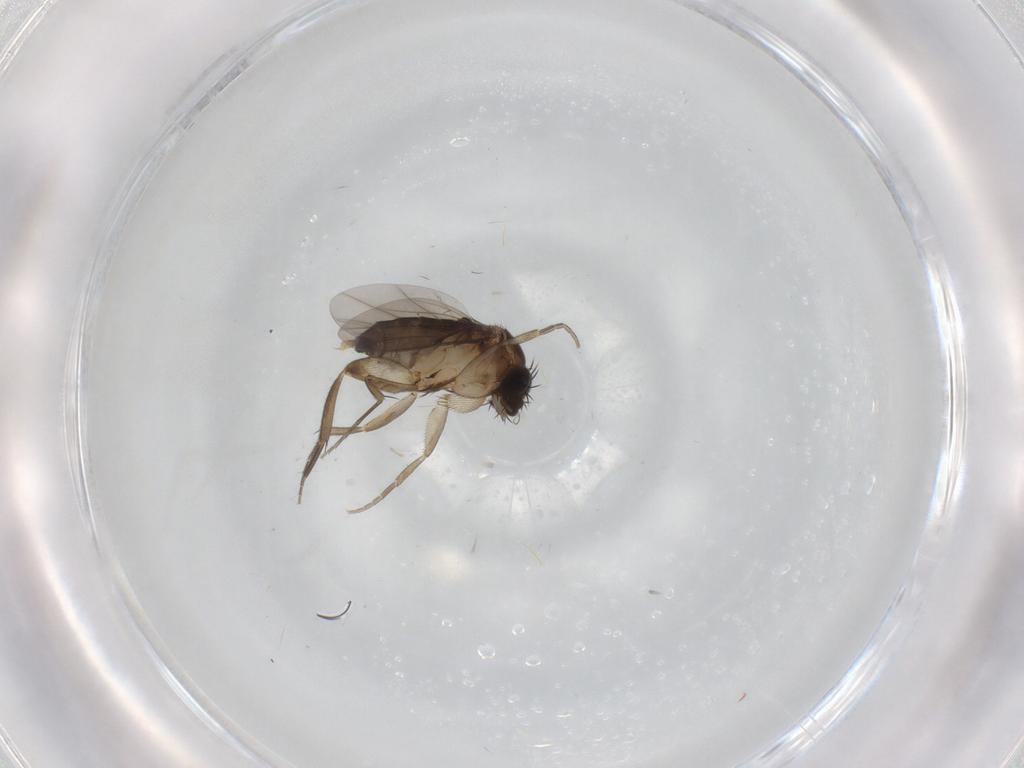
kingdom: Animalia
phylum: Arthropoda
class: Insecta
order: Diptera
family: Phoridae
